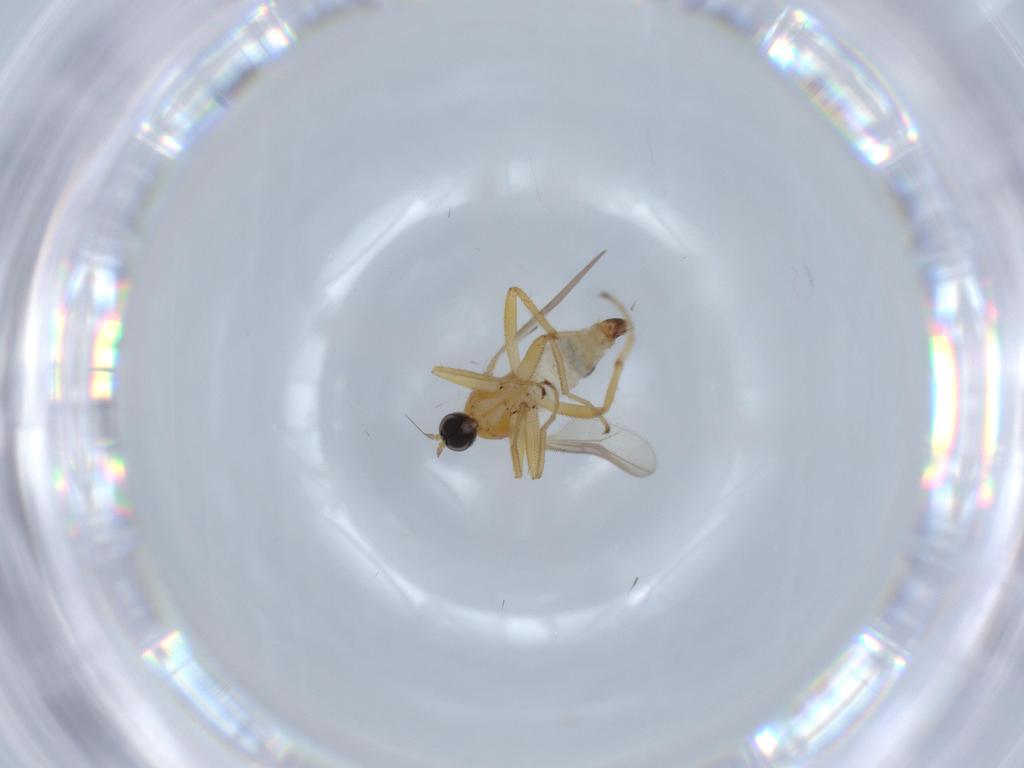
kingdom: Animalia
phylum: Arthropoda
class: Insecta
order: Diptera
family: Hybotidae
